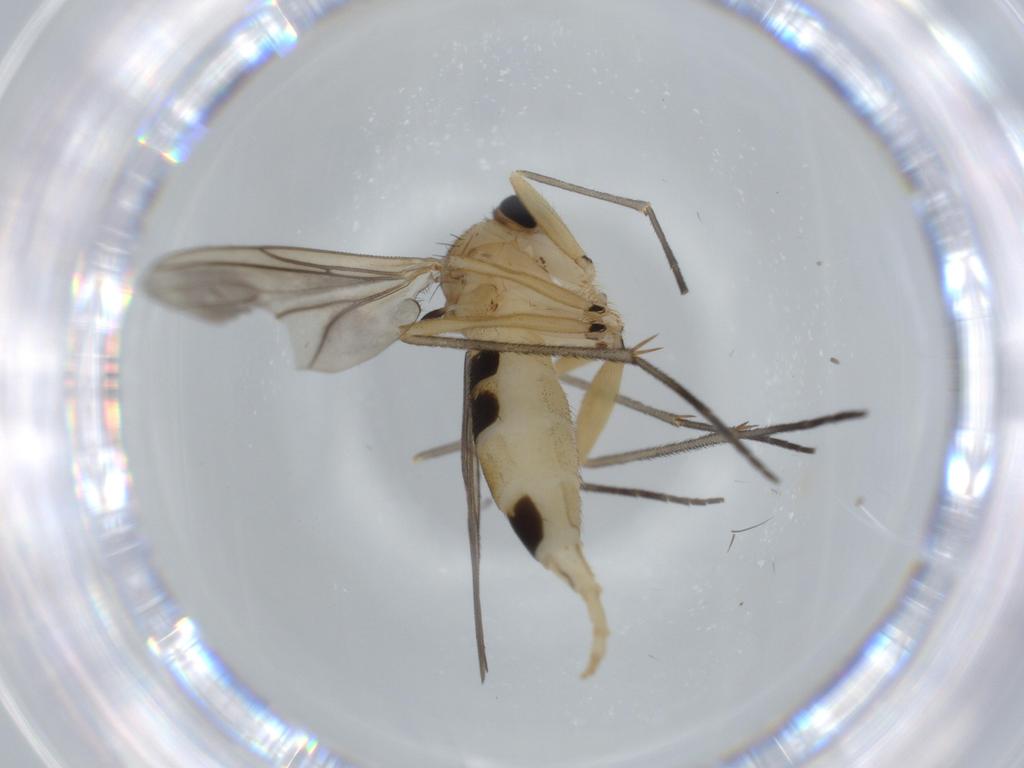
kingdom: Animalia
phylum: Arthropoda
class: Insecta
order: Diptera
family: Sciaridae
